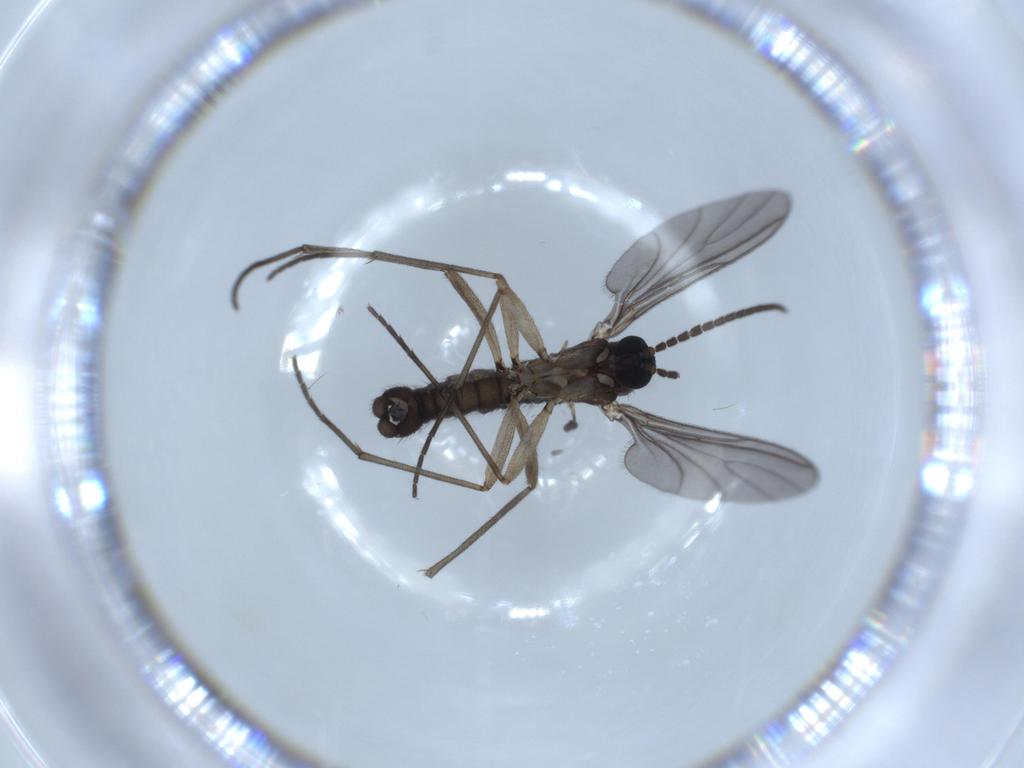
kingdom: Animalia
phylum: Arthropoda
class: Insecta
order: Diptera
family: Sciaridae
